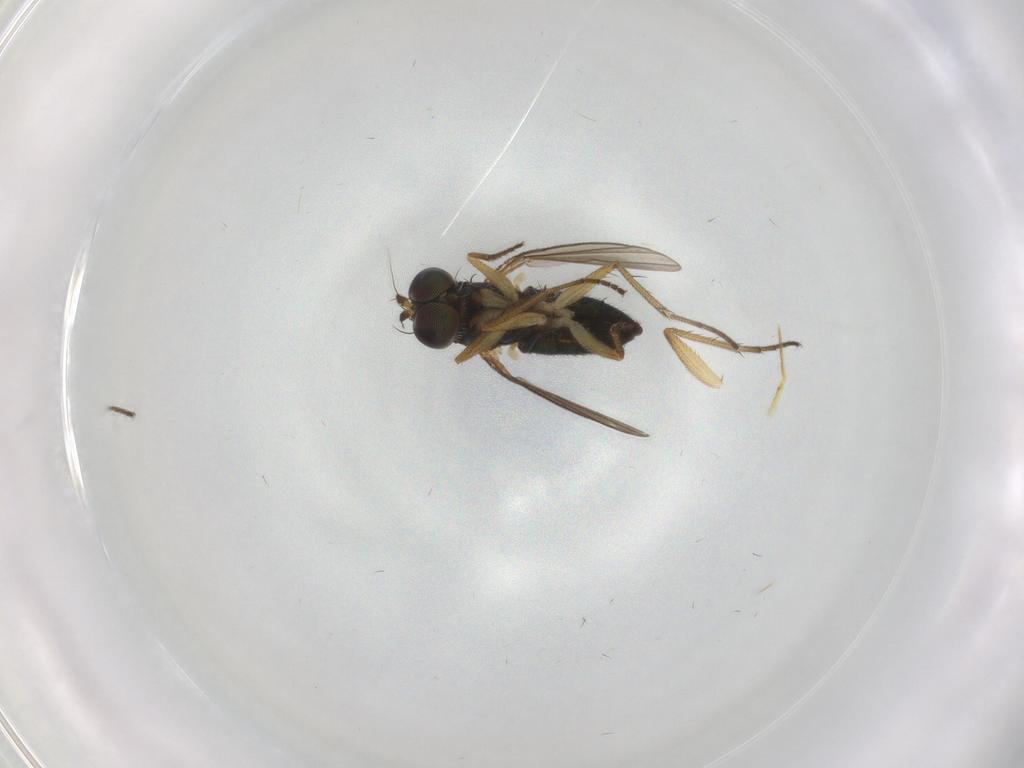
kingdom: Animalia
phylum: Arthropoda
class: Insecta
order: Diptera
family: Dolichopodidae
